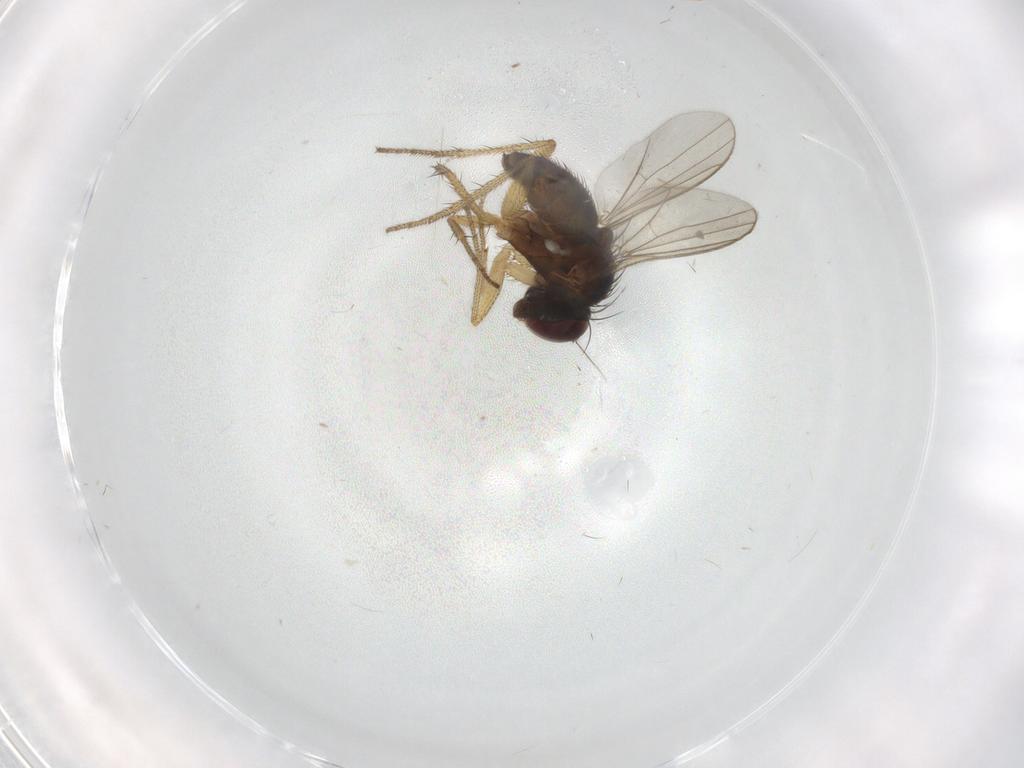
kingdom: Animalia
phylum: Arthropoda
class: Insecta
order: Diptera
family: Chironomidae
